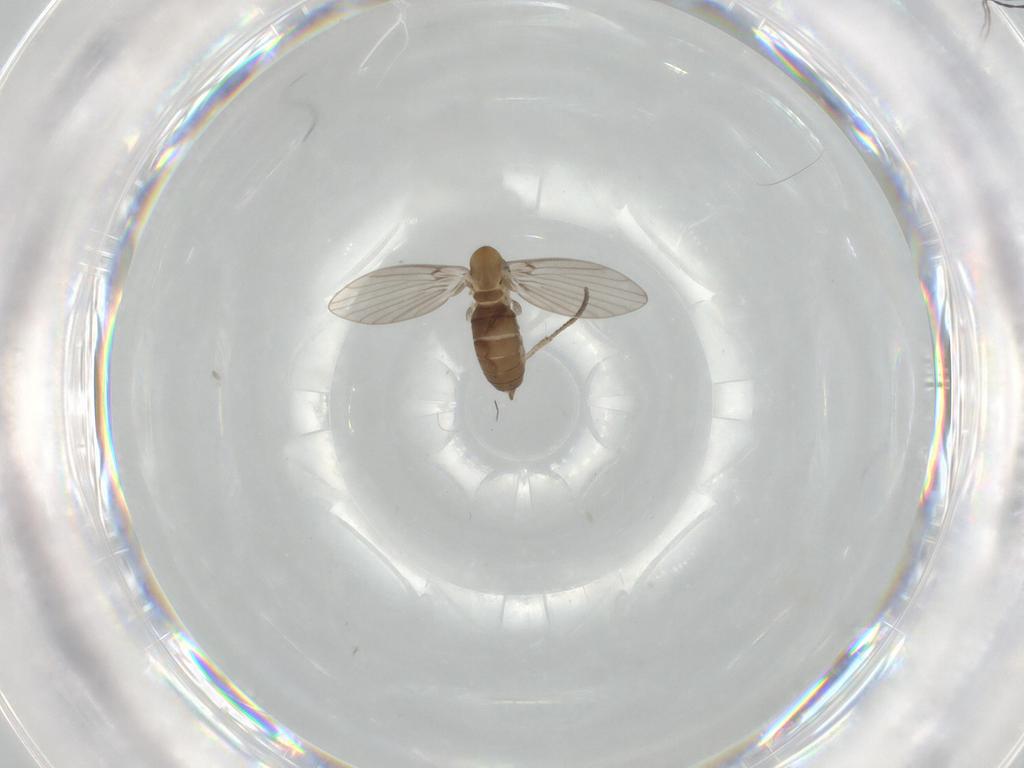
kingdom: Animalia
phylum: Arthropoda
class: Insecta
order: Diptera
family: Psychodidae
